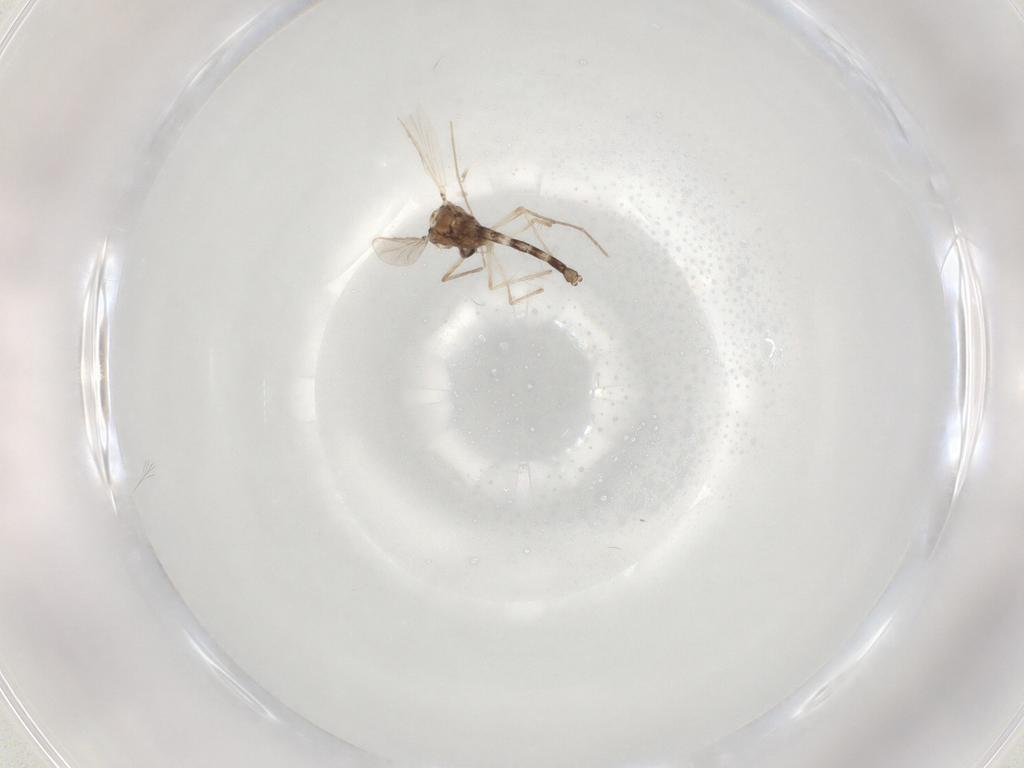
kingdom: Animalia
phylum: Arthropoda
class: Insecta
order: Diptera
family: Chironomidae
